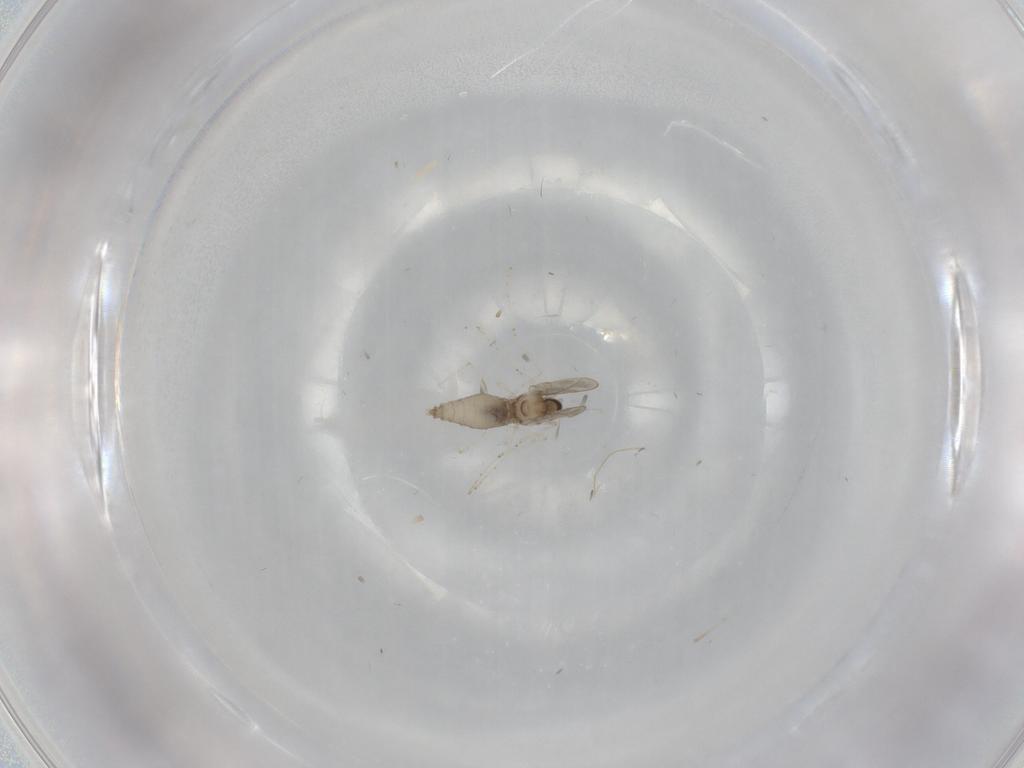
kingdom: Animalia
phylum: Arthropoda
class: Insecta
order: Diptera
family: Cecidomyiidae
